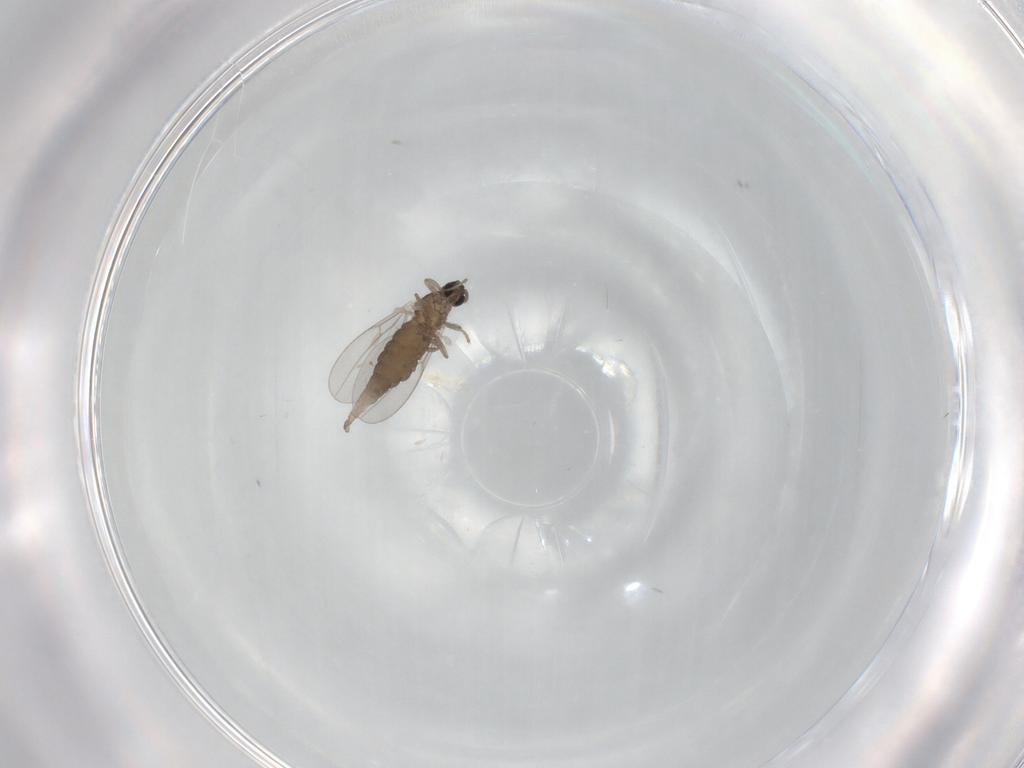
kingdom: Animalia
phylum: Arthropoda
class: Insecta
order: Diptera
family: Cecidomyiidae
